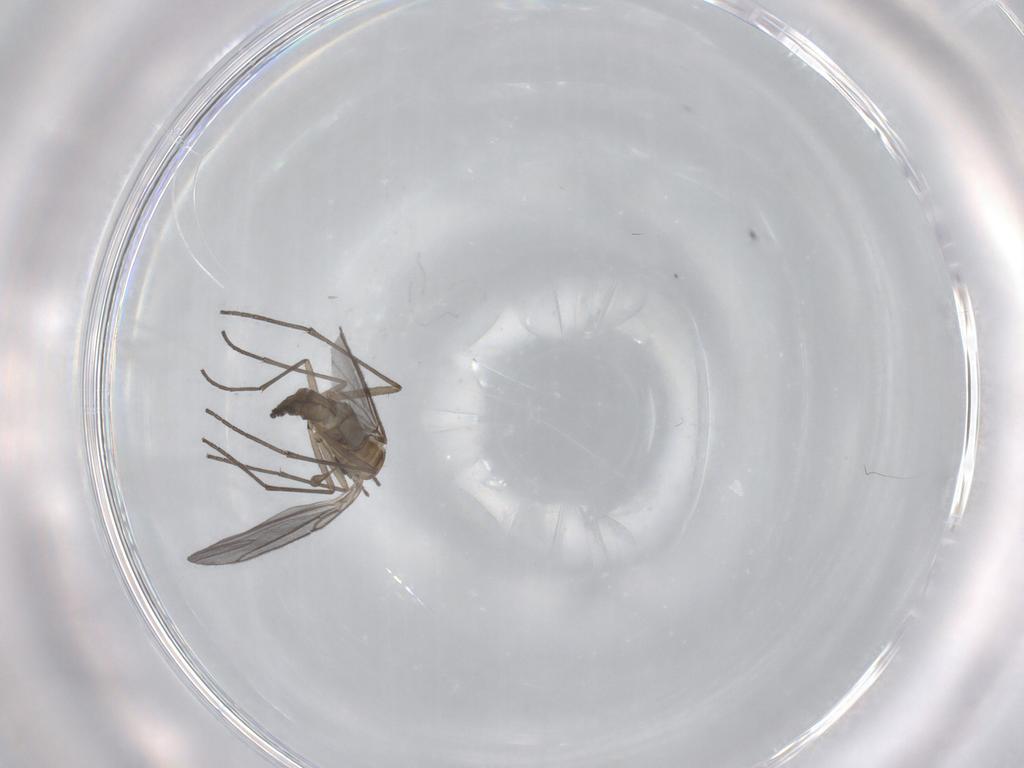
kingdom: Animalia
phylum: Arthropoda
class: Insecta
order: Diptera
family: Sciaridae
